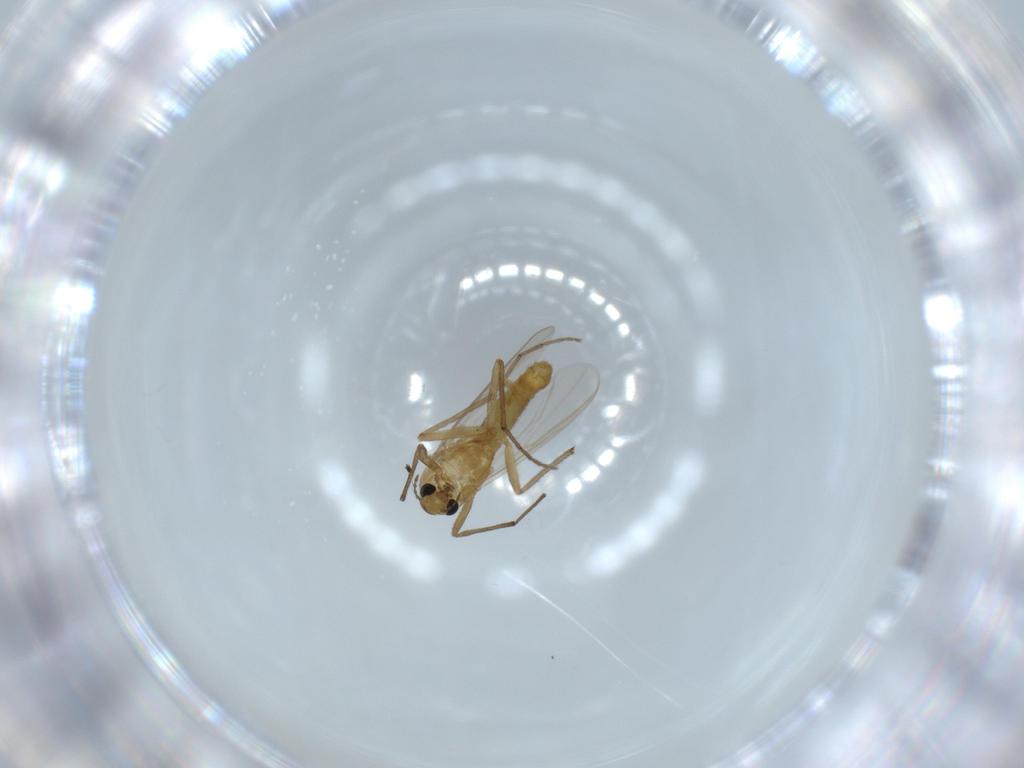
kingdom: Animalia
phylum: Arthropoda
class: Insecta
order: Diptera
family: Chironomidae
